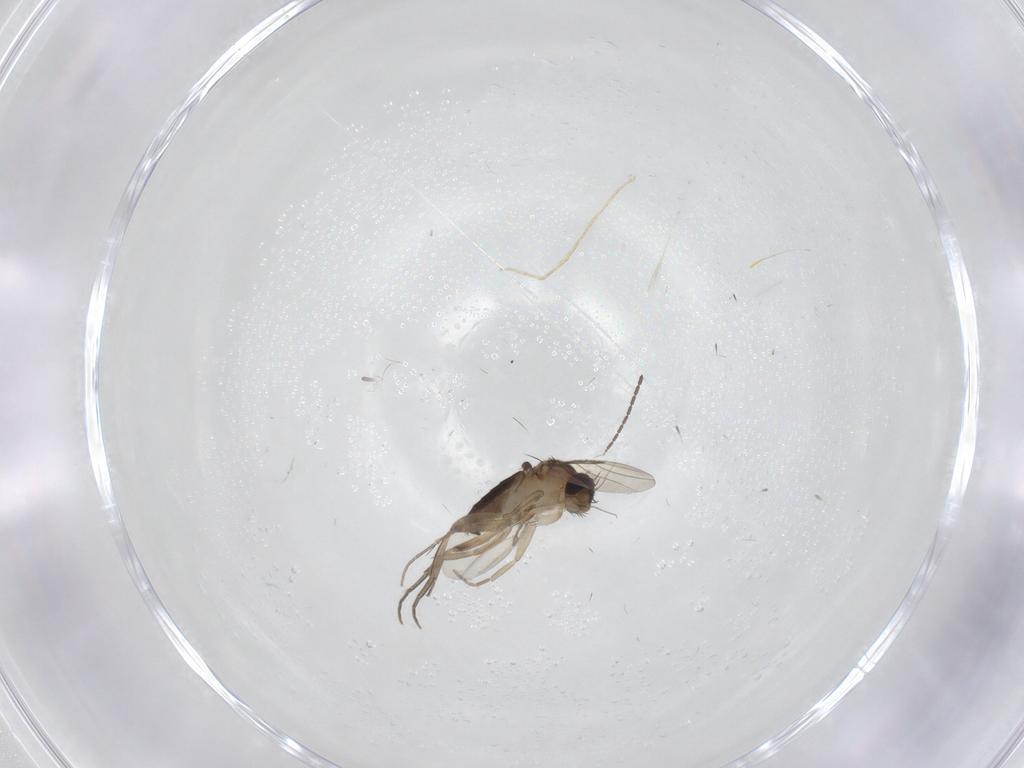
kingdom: Animalia
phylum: Arthropoda
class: Insecta
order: Diptera
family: Phoridae
